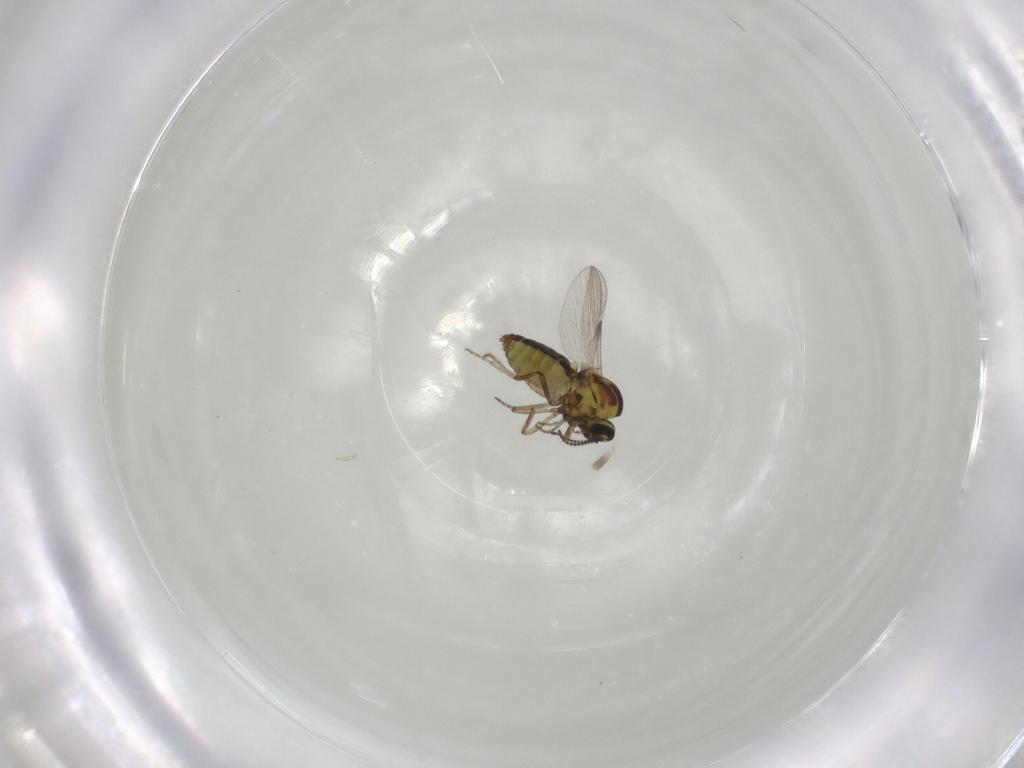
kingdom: Animalia
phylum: Arthropoda
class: Insecta
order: Diptera
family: Ceratopogonidae
